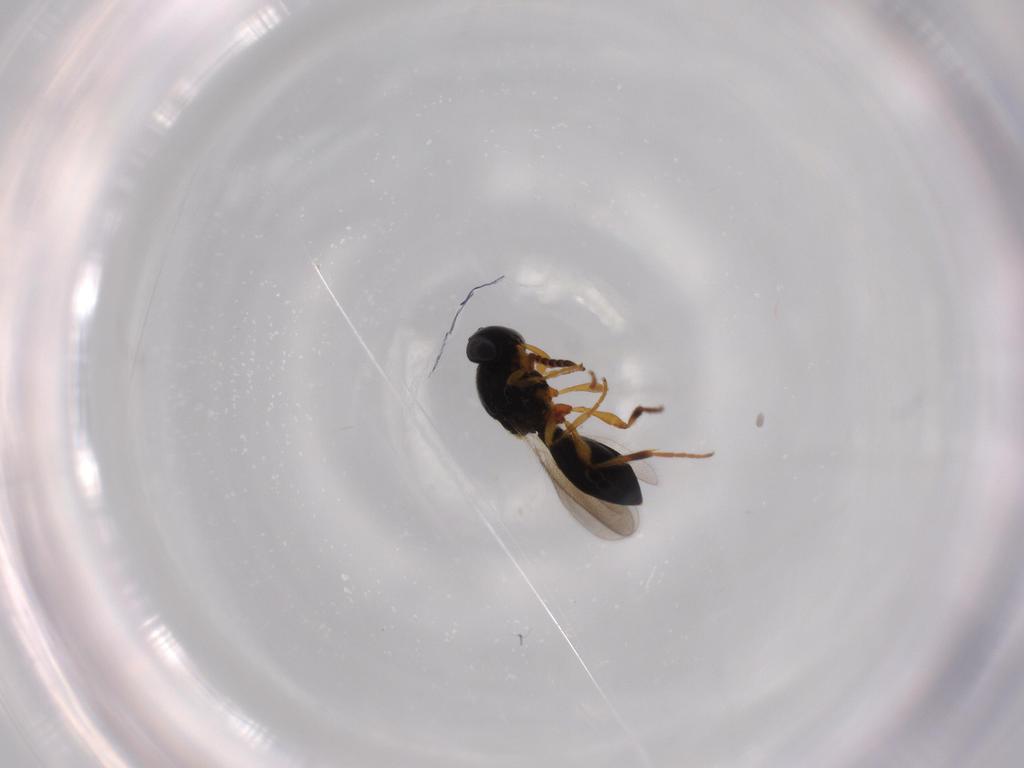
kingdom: Animalia
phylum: Arthropoda
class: Insecta
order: Hymenoptera
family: Platygastridae
